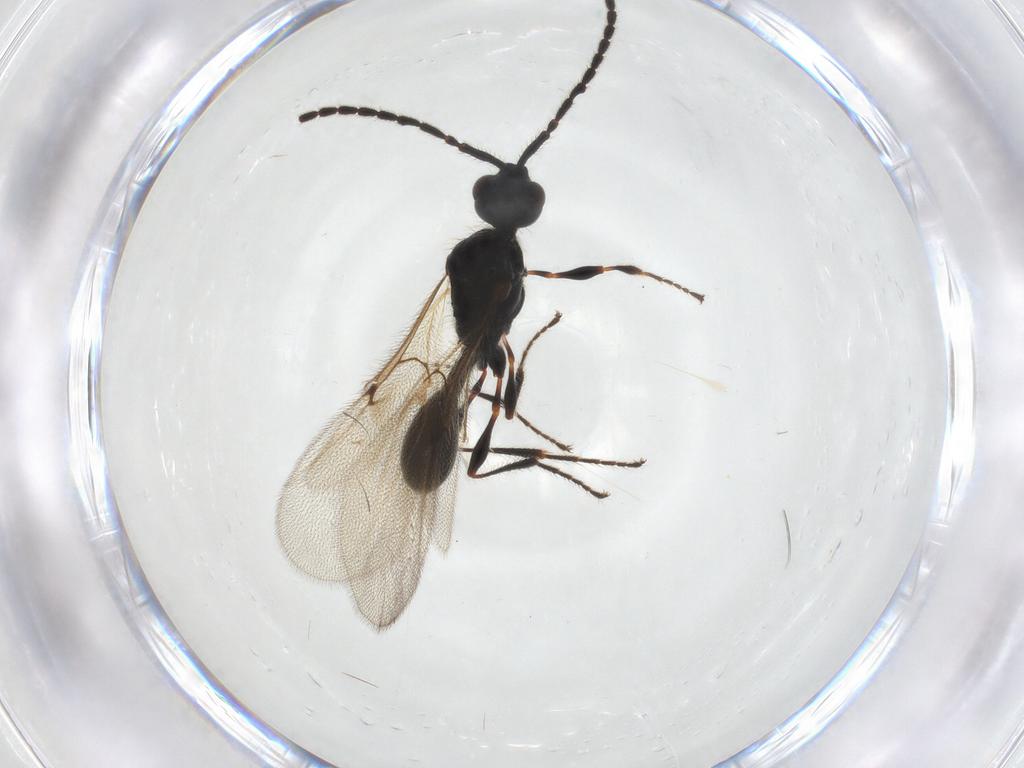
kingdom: Animalia
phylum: Arthropoda
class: Insecta
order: Hymenoptera
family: Diapriidae
